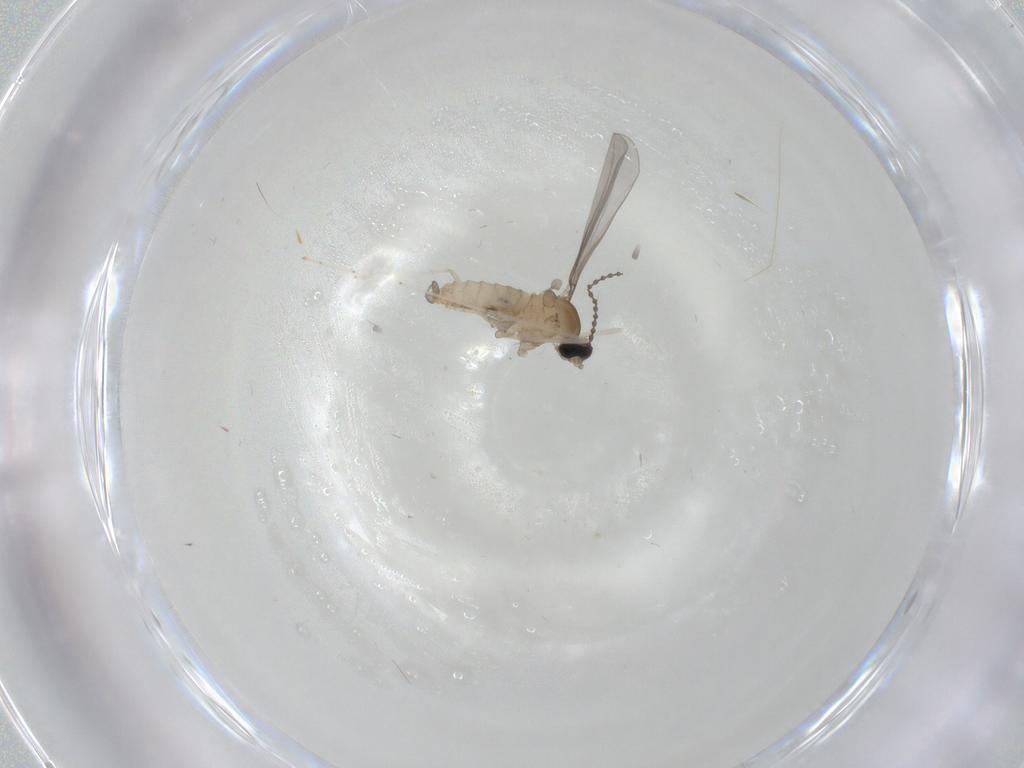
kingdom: Animalia
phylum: Arthropoda
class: Insecta
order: Diptera
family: Cecidomyiidae
